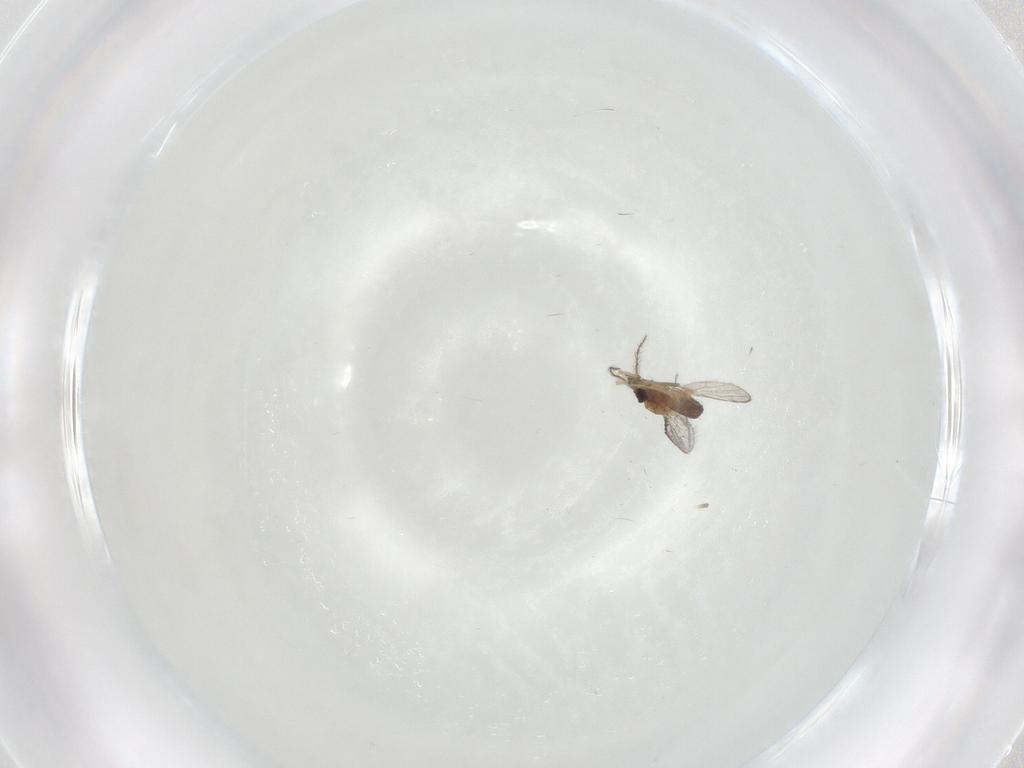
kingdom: Animalia
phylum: Arthropoda
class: Insecta
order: Diptera
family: Ceratopogonidae
